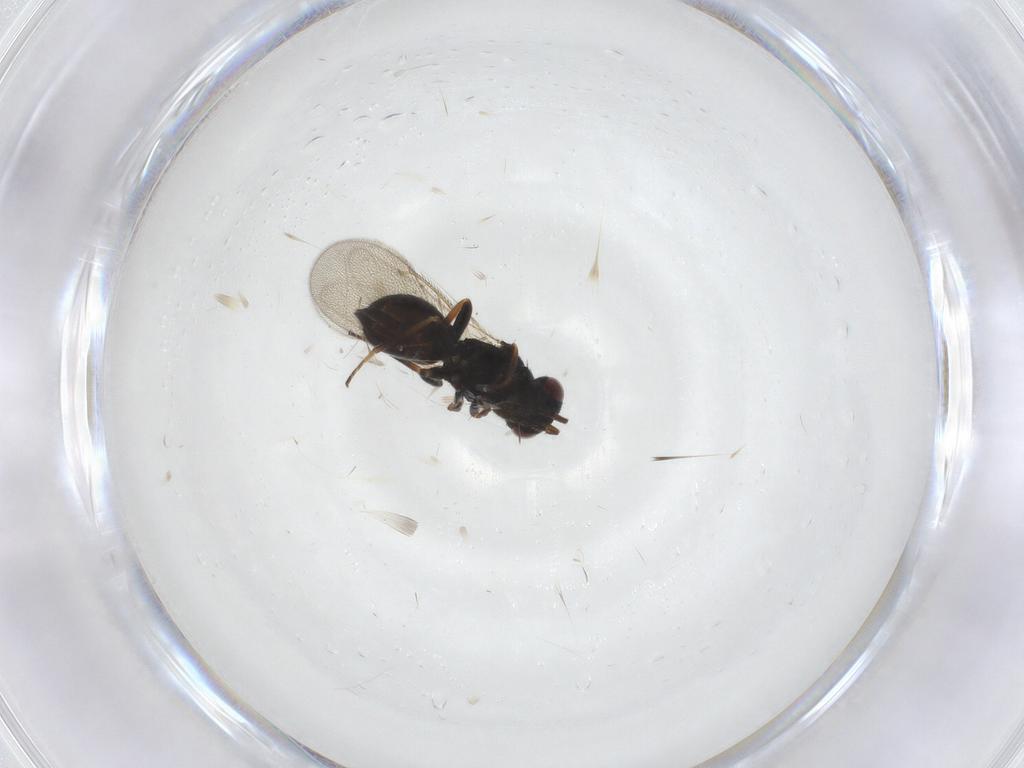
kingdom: Animalia
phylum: Arthropoda
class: Insecta
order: Hymenoptera
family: Eulophidae
